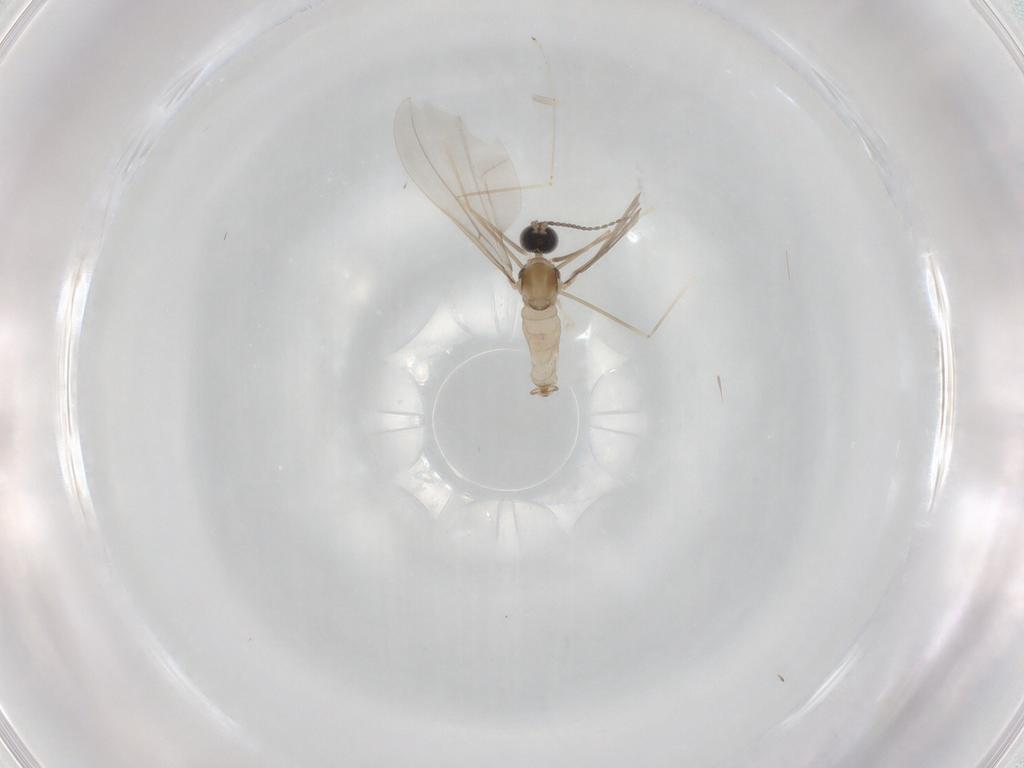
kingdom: Animalia
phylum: Arthropoda
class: Insecta
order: Diptera
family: Cecidomyiidae
